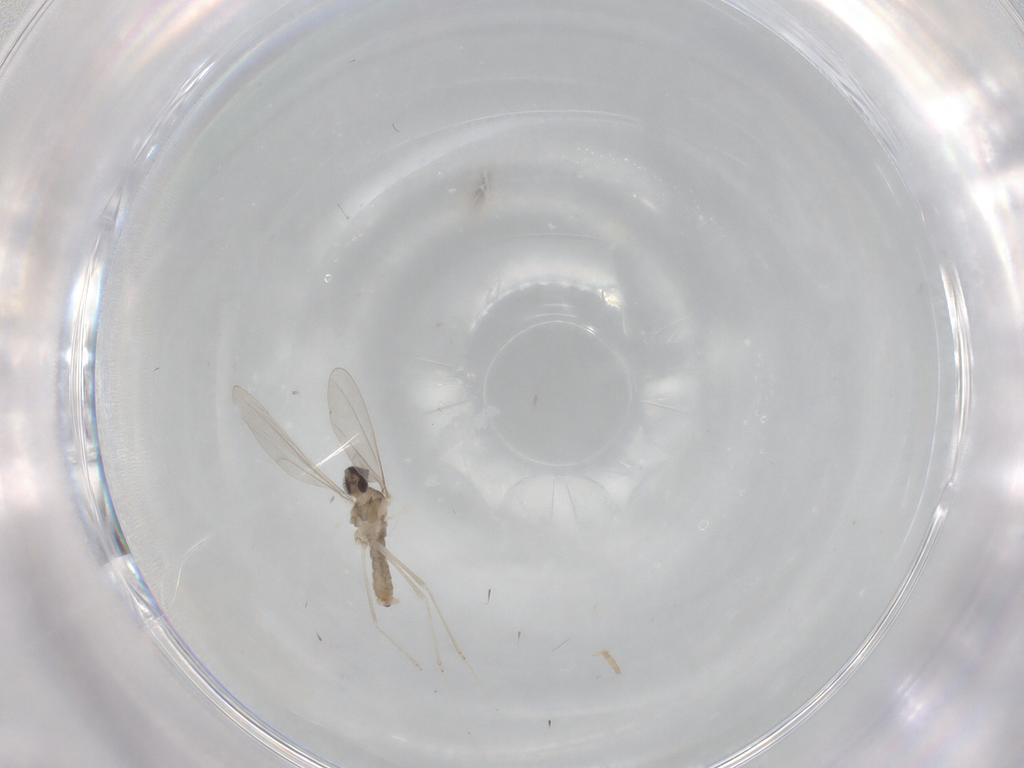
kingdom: Animalia
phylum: Arthropoda
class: Insecta
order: Diptera
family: Cecidomyiidae
